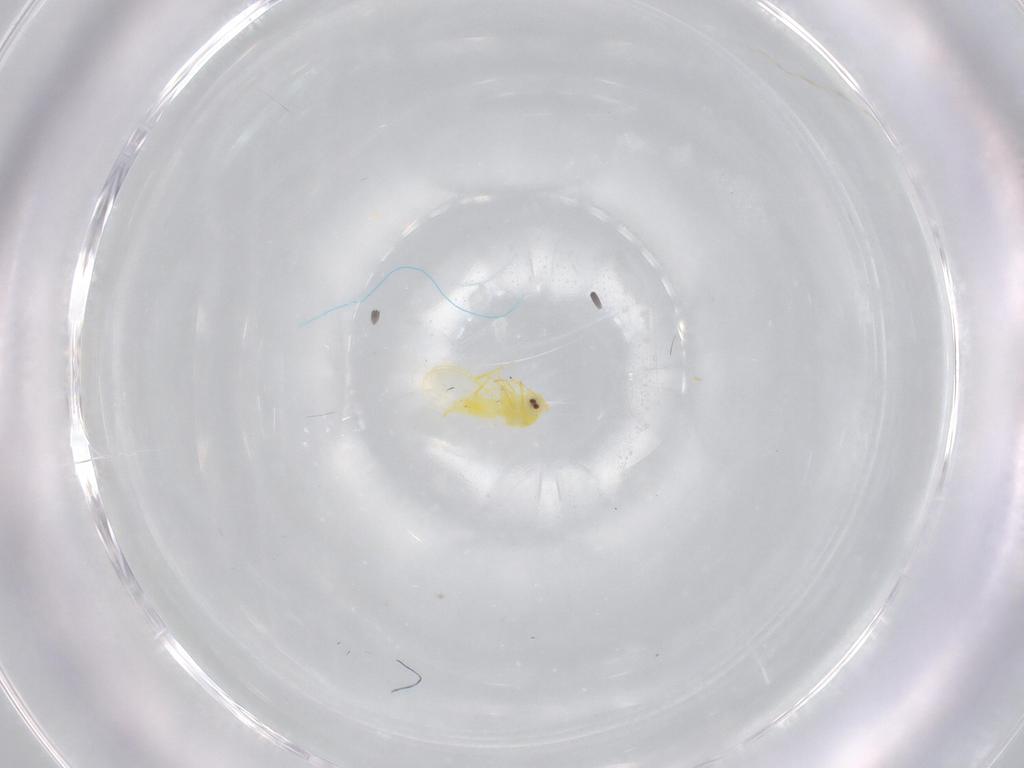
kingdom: Animalia
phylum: Arthropoda
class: Insecta
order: Hemiptera
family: Aleyrodidae
